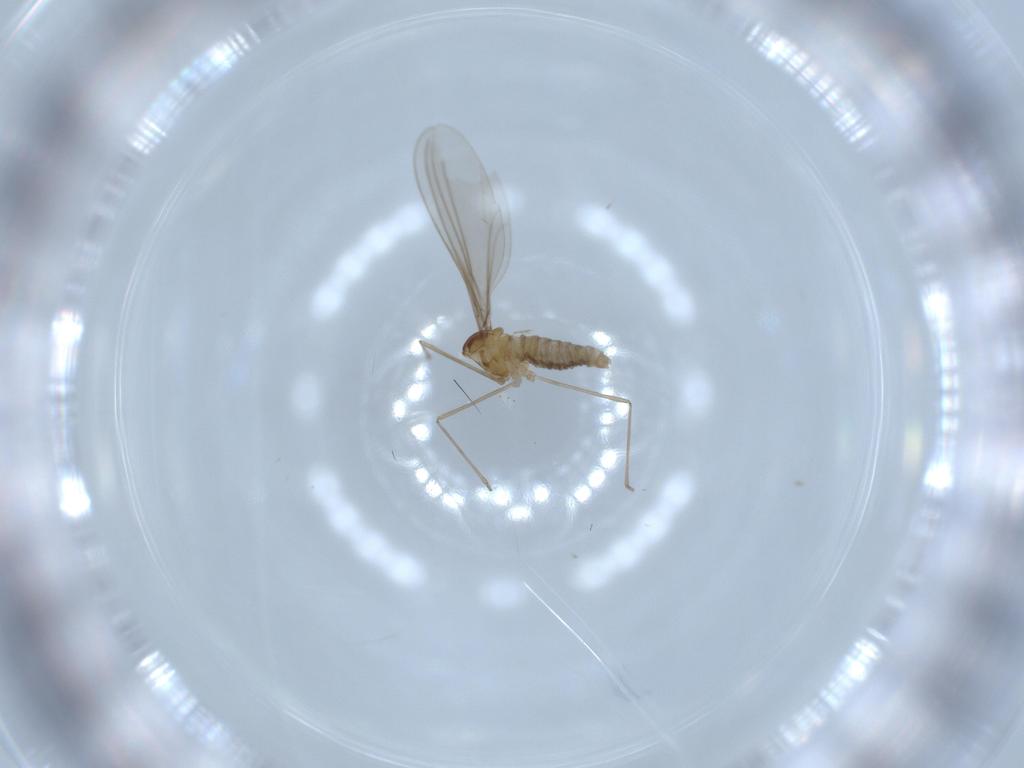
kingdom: Animalia
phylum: Arthropoda
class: Insecta
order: Diptera
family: Cecidomyiidae
